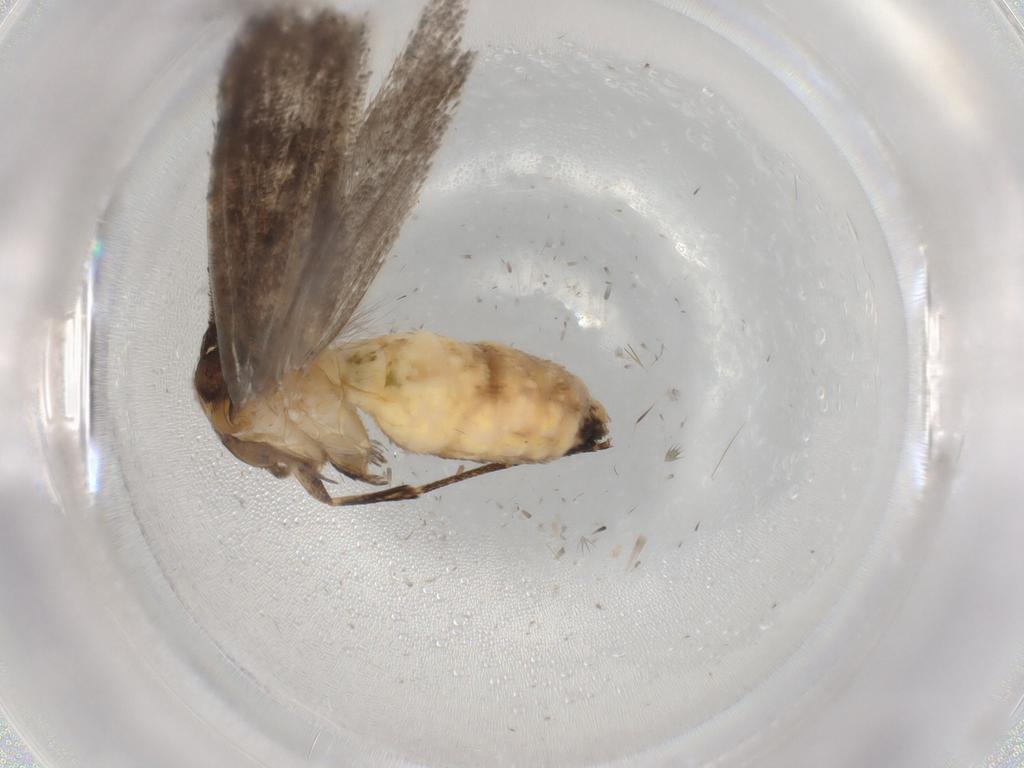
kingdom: Animalia
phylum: Arthropoda
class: Insecta
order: Lepidoptera
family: Epermeniidae
